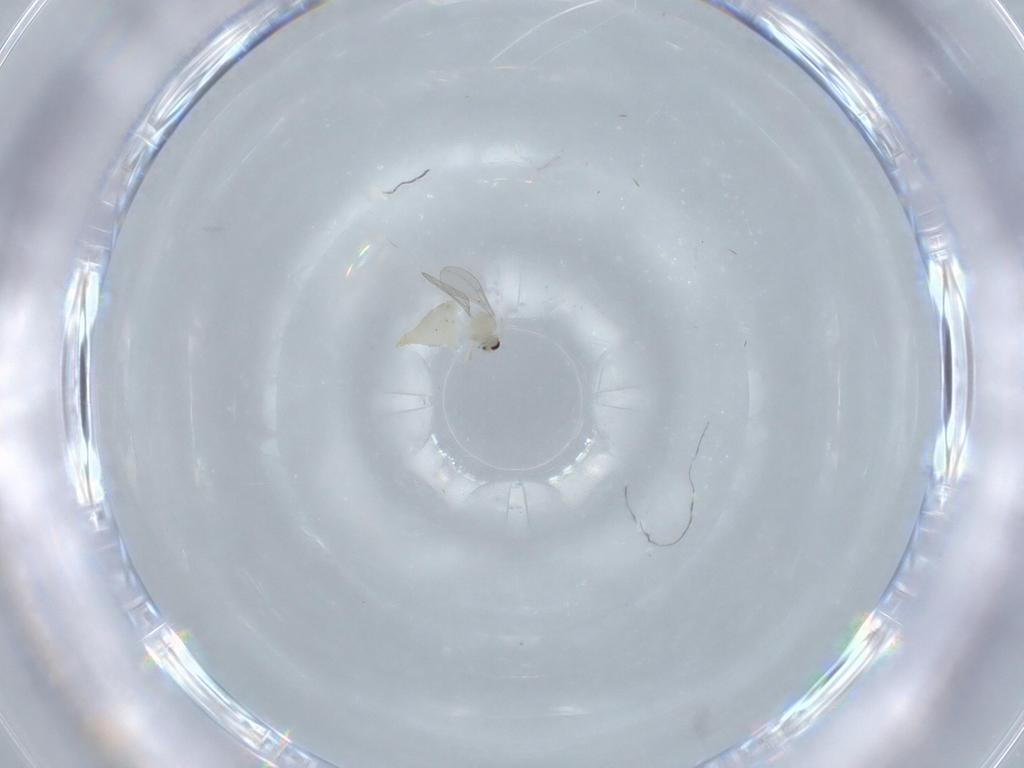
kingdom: Animalia
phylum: Arthropoda
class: Insecta
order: Diptera
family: Cecidomyiidae
